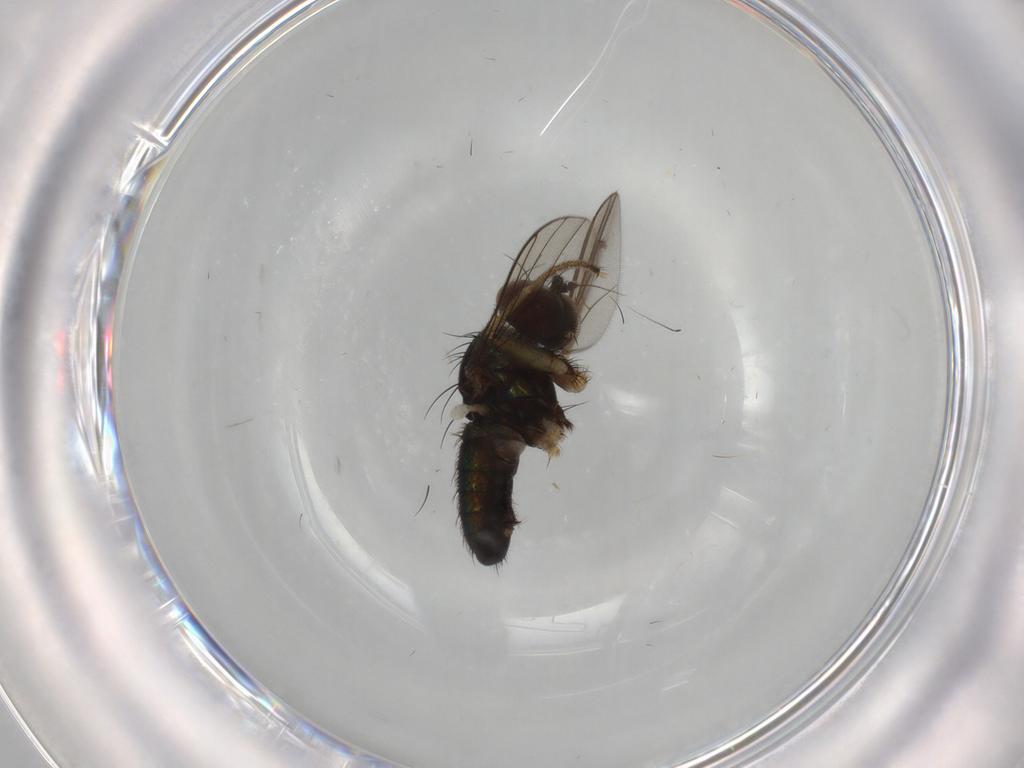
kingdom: Animalia
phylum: Arthropoda
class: Insecta
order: Diptera
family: Dolichopodidae
